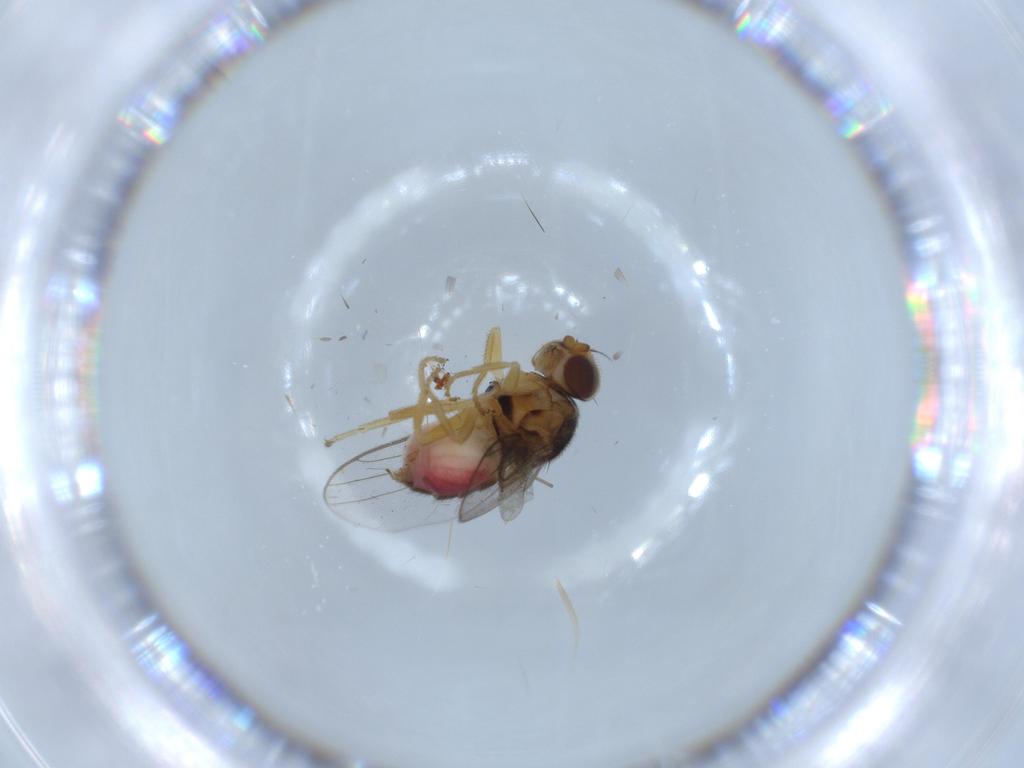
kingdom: Animalia
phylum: Arthropoda
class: Insecta
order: Diptera
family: Chloropidae
